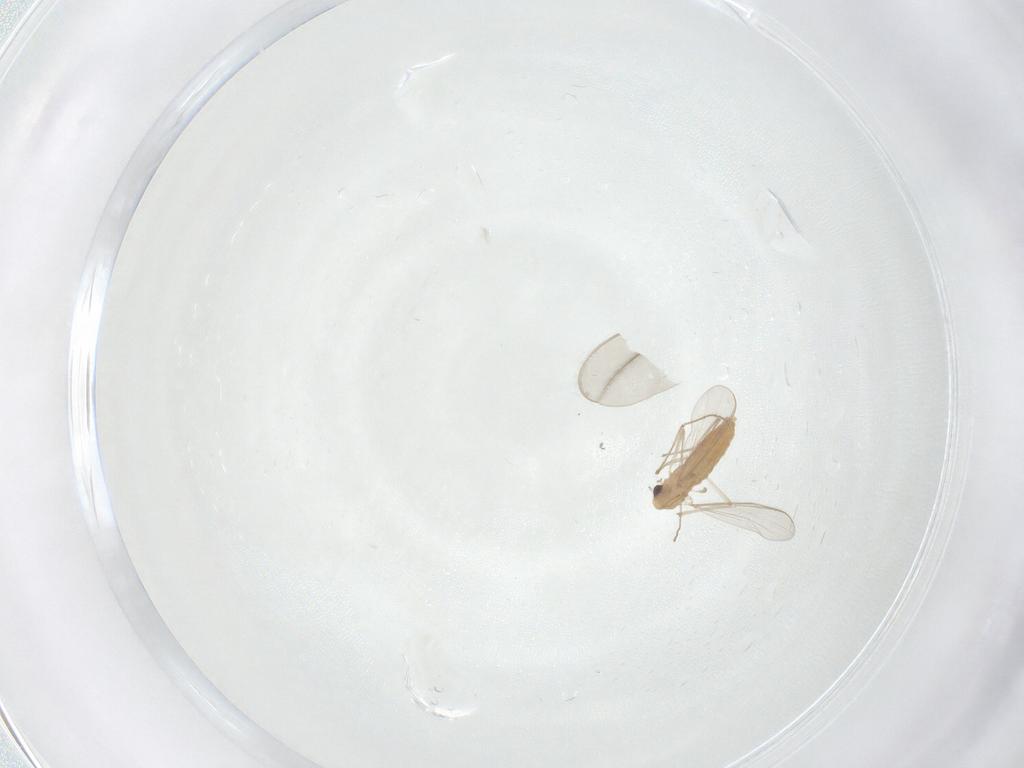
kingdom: Animalia
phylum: Arthropoda
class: Insecta
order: Diptera
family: Chironomidae
